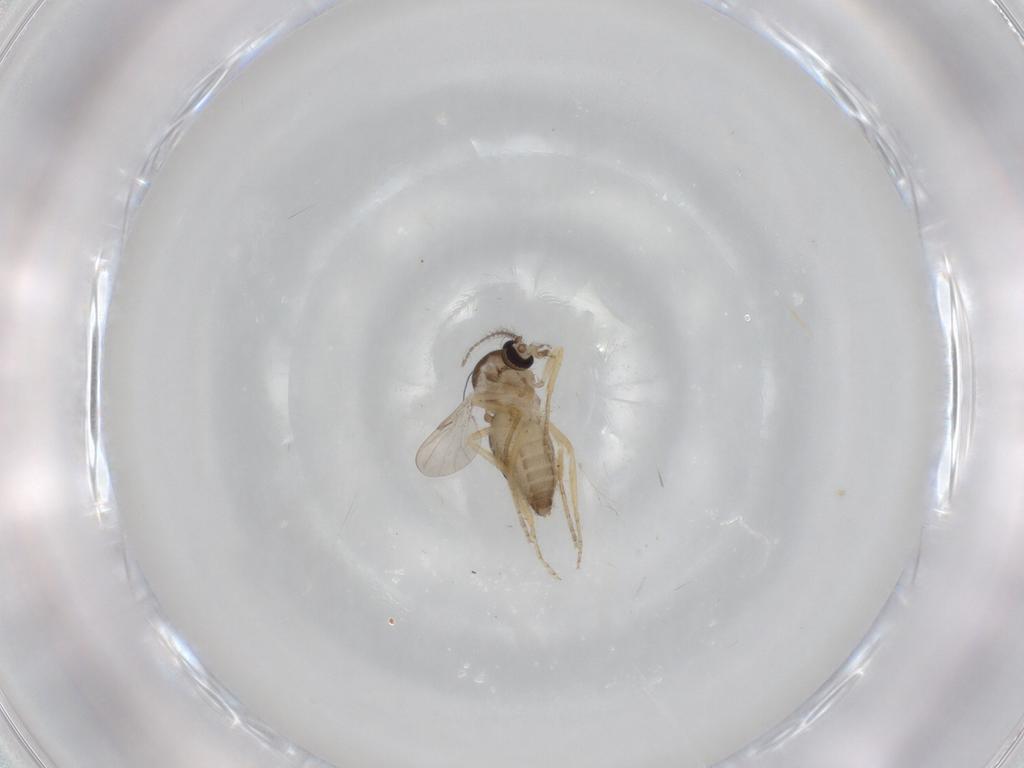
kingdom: Animalia
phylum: Arthropoda
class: Insecta
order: Diptera
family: Ceratopogonidae
